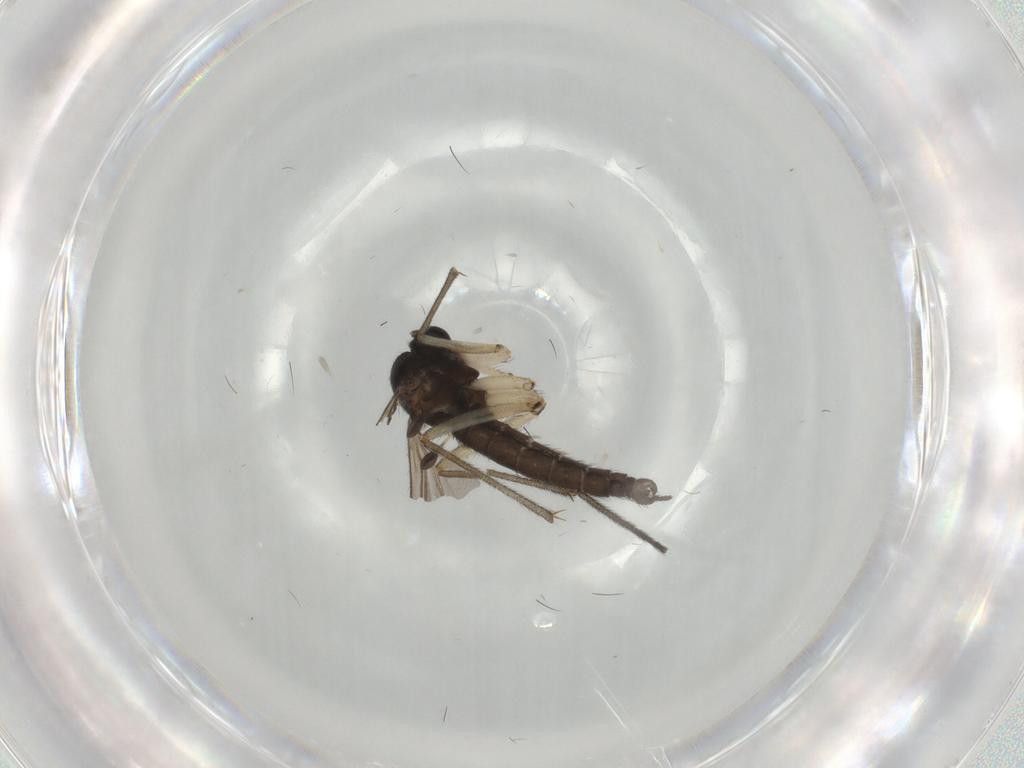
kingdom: Animalia
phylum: Arthropoda
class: Insecta
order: Diptera
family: Sciaridae
